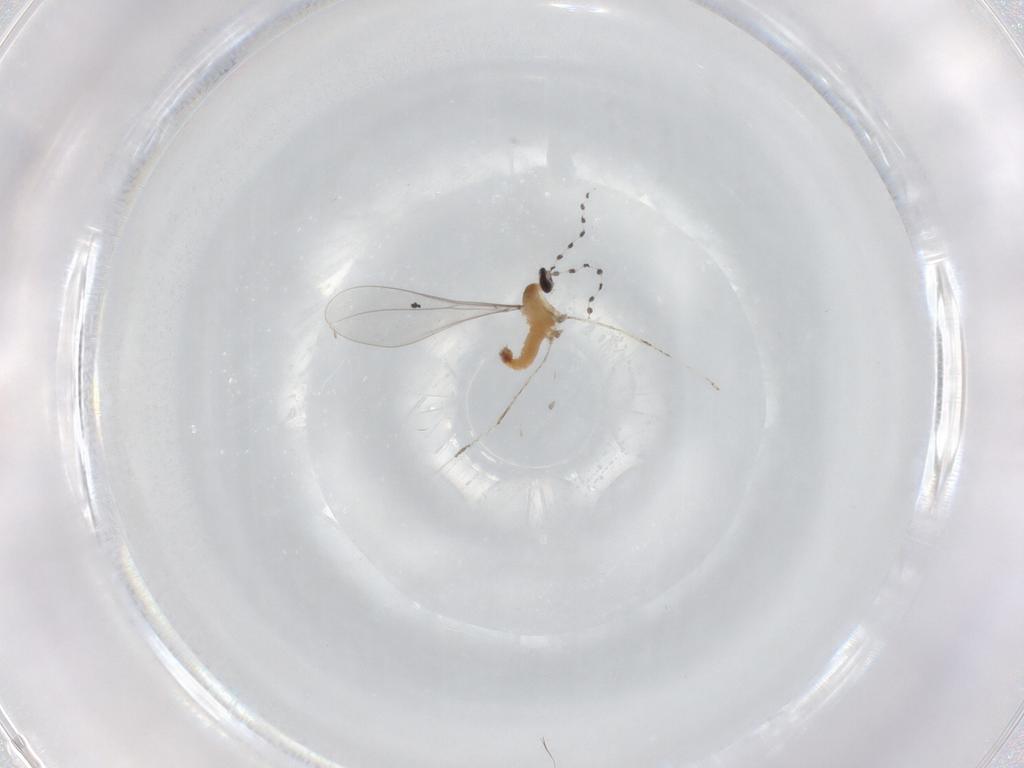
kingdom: Animalia
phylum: Arthropoda
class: Insecta
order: Diptera
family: Cecidomyiidae
